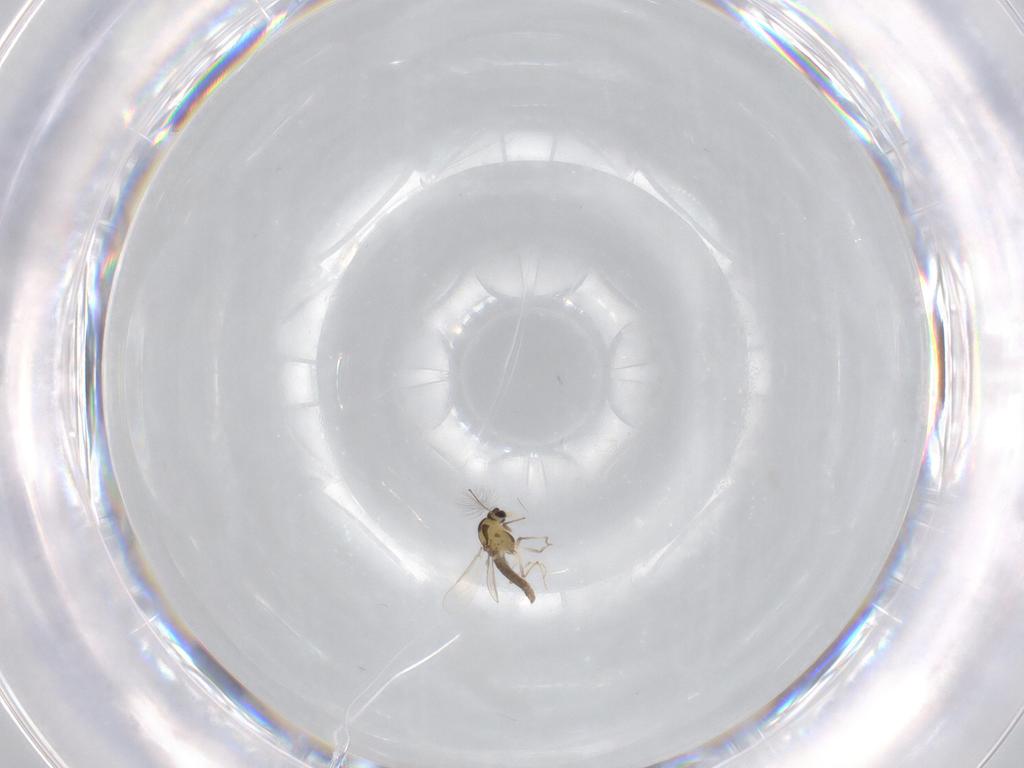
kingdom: Animalia
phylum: Arthropoda
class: Insecta
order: Diptera
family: Chironomidae
